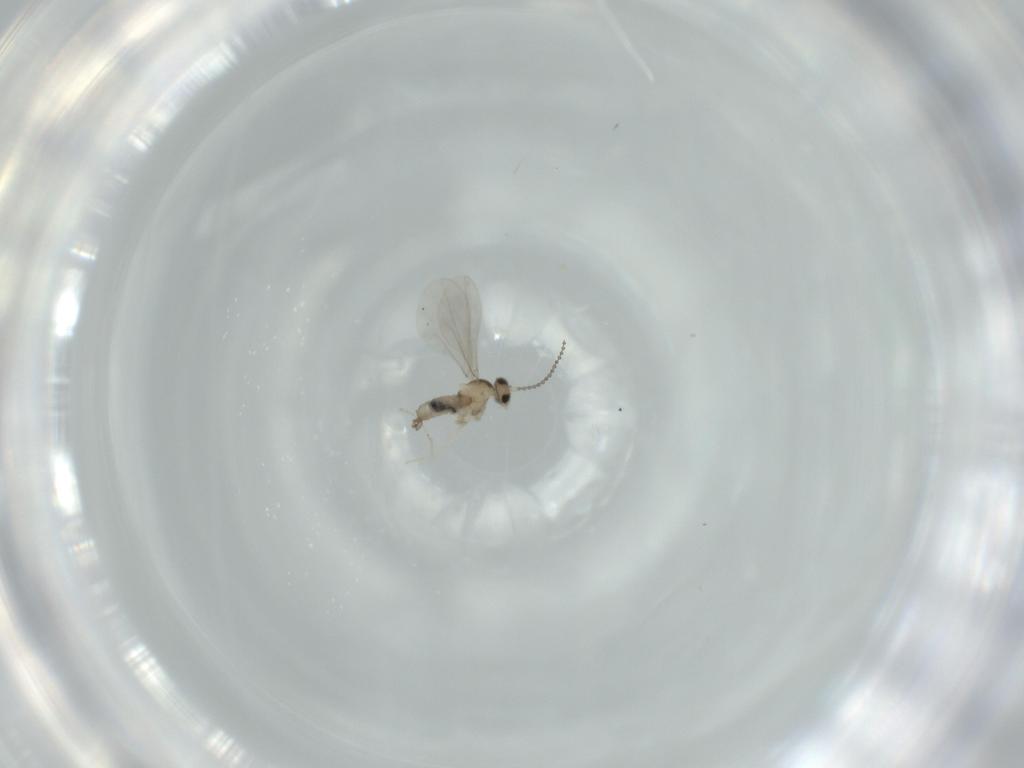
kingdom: Animalia
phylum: Arthropoda
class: Insecta
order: Diptera
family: Cecidomyiidae
